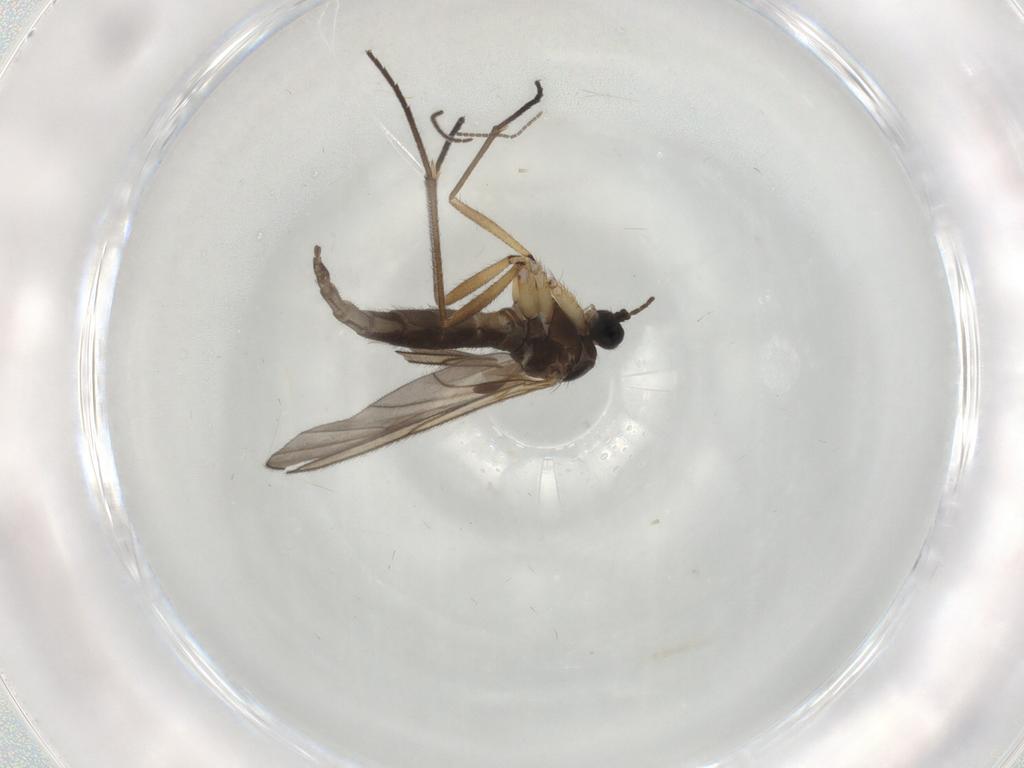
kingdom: Animalia
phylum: Arthropoda
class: Insecta
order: Diptera
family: Sciaridae
